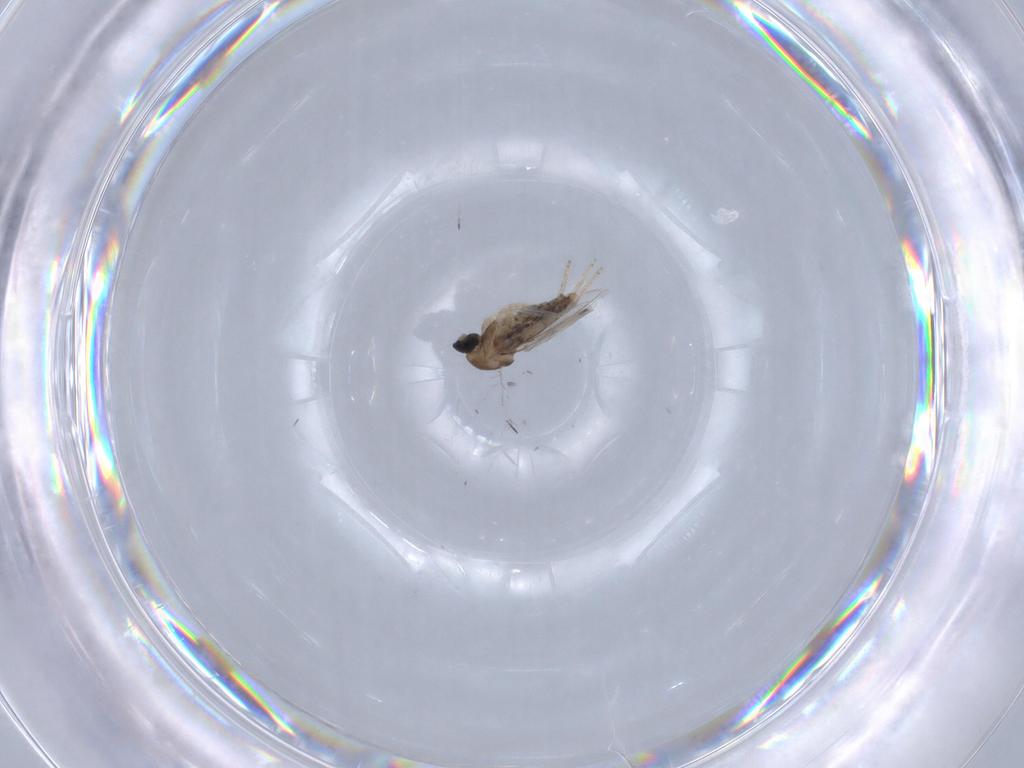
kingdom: Animalia
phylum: Arthropoda
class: Insecta
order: Diptera
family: Cecidomyiidae
